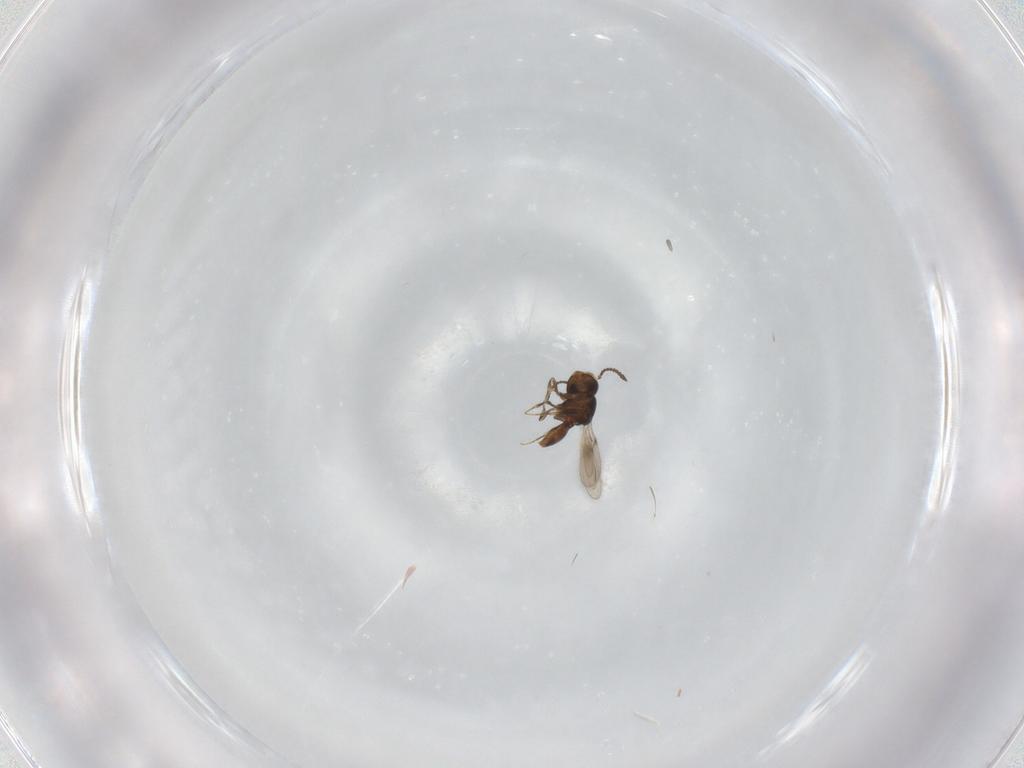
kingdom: Animalia
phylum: Arthropoda
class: Insecta
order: Hymenoptera
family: Scelionidae
